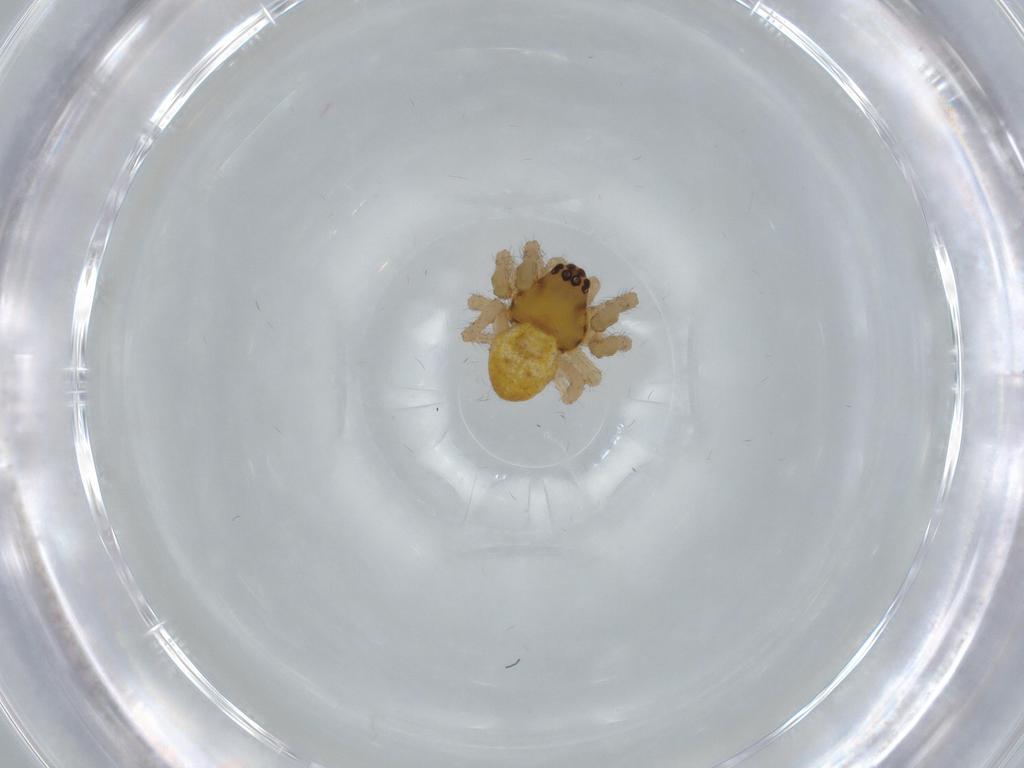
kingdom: Animalia
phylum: Arthropoda
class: Arachnida
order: Araneae
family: Araneidae
